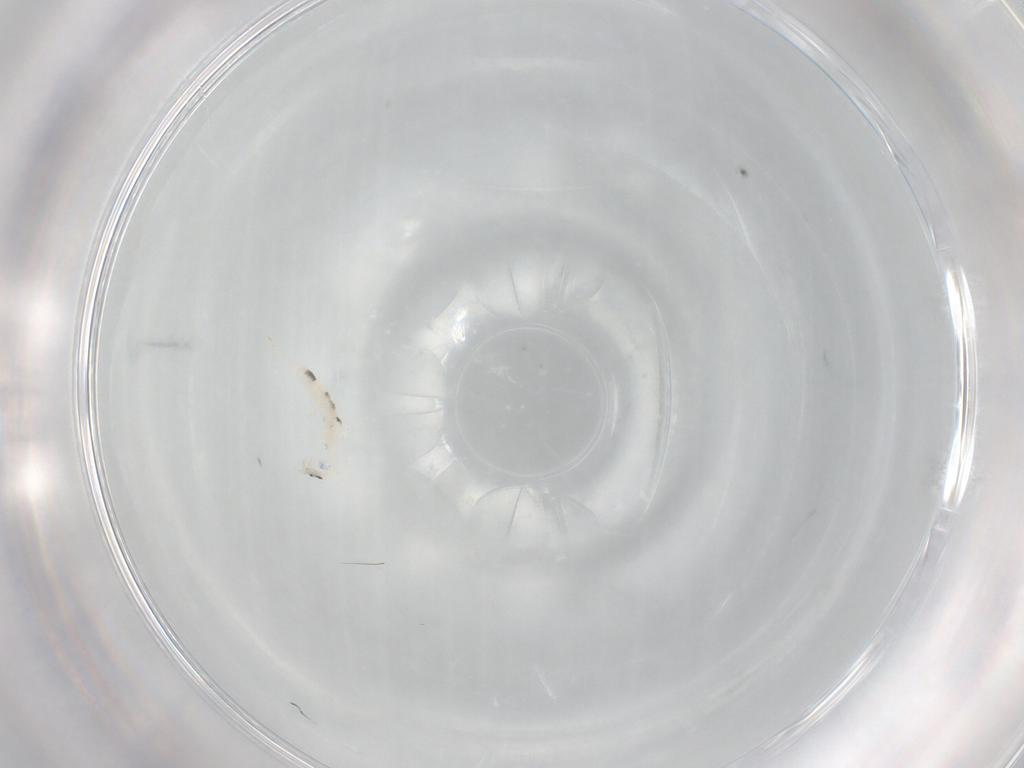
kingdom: Animalia
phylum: Arthropoda
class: Collembola
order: Entomobryomorpha
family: Entomobryidae
